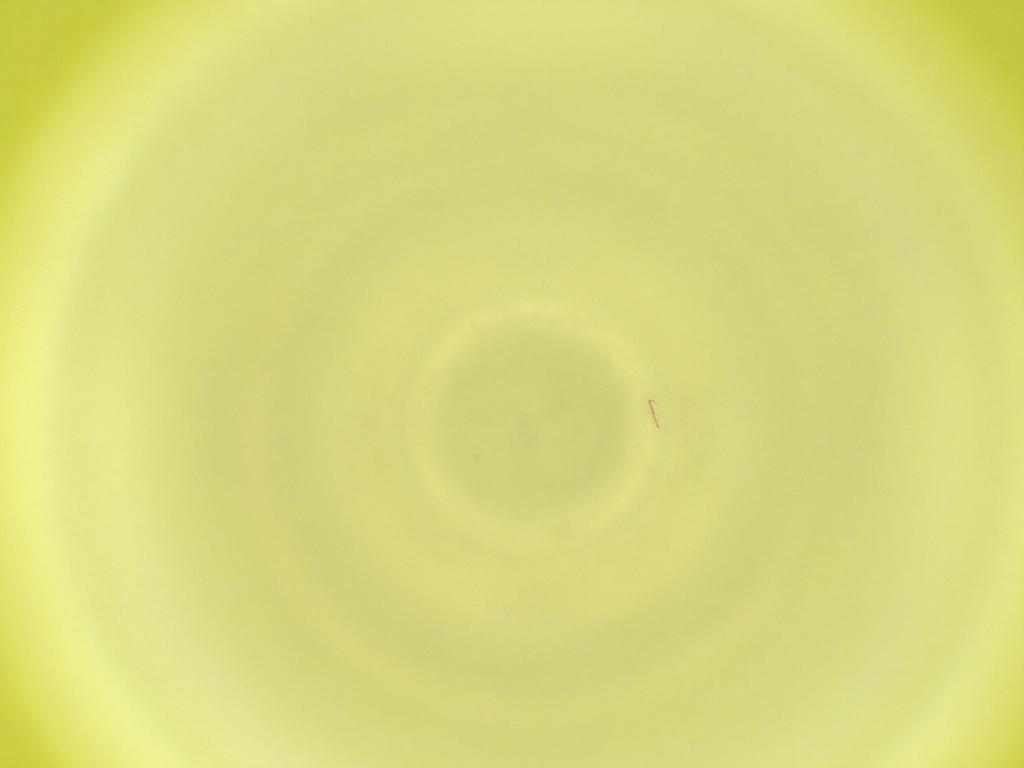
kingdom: Animalia
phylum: Arthropoda
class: Insecta
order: Diptera
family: Cecidomyiidae
